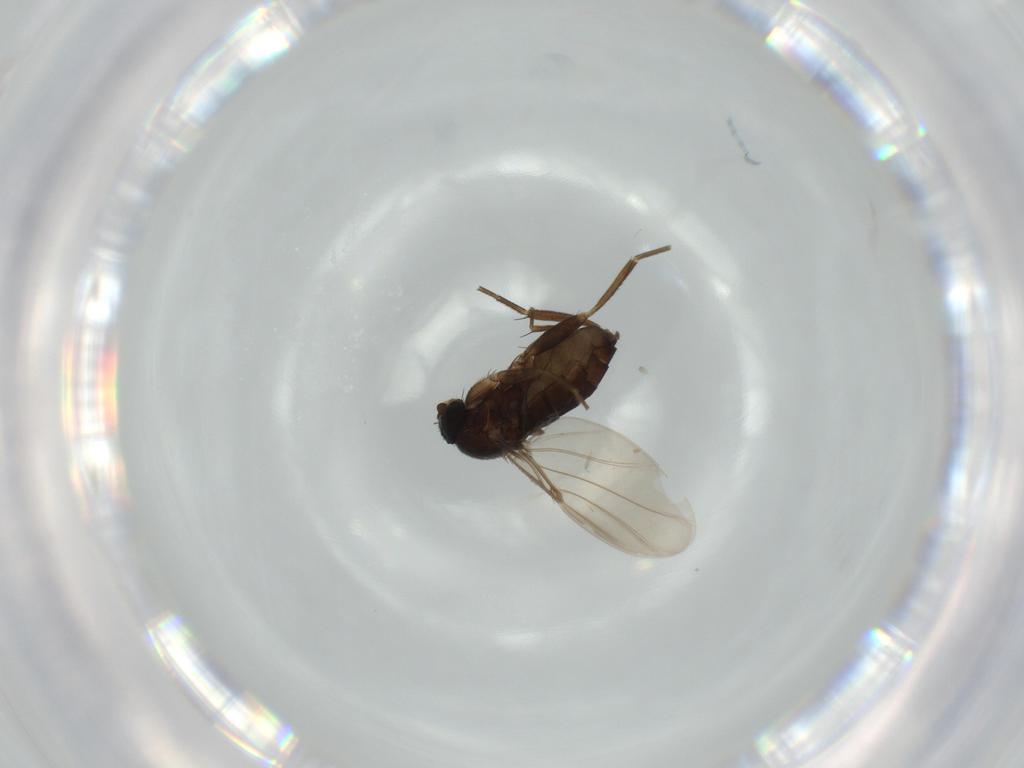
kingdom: Animalia
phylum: Arthropoda
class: Insecta
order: Diptera
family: Phoridae
